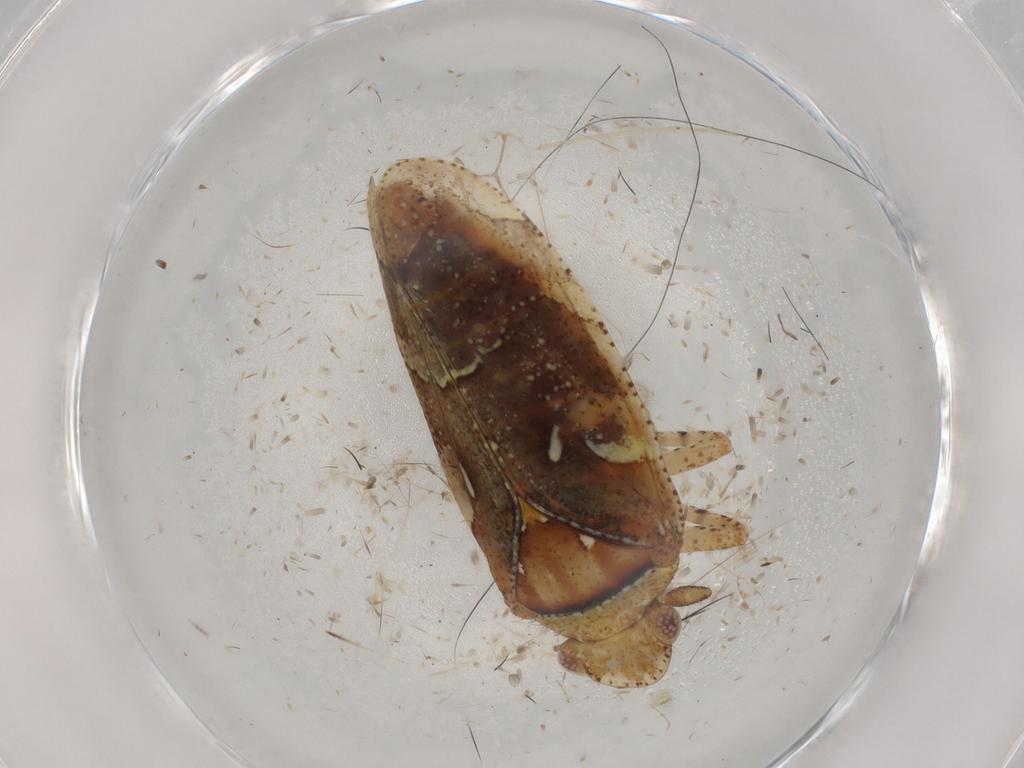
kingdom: Animalia
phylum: Arthropoda
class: Insecta
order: Hemiptera
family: Tettigometridae
